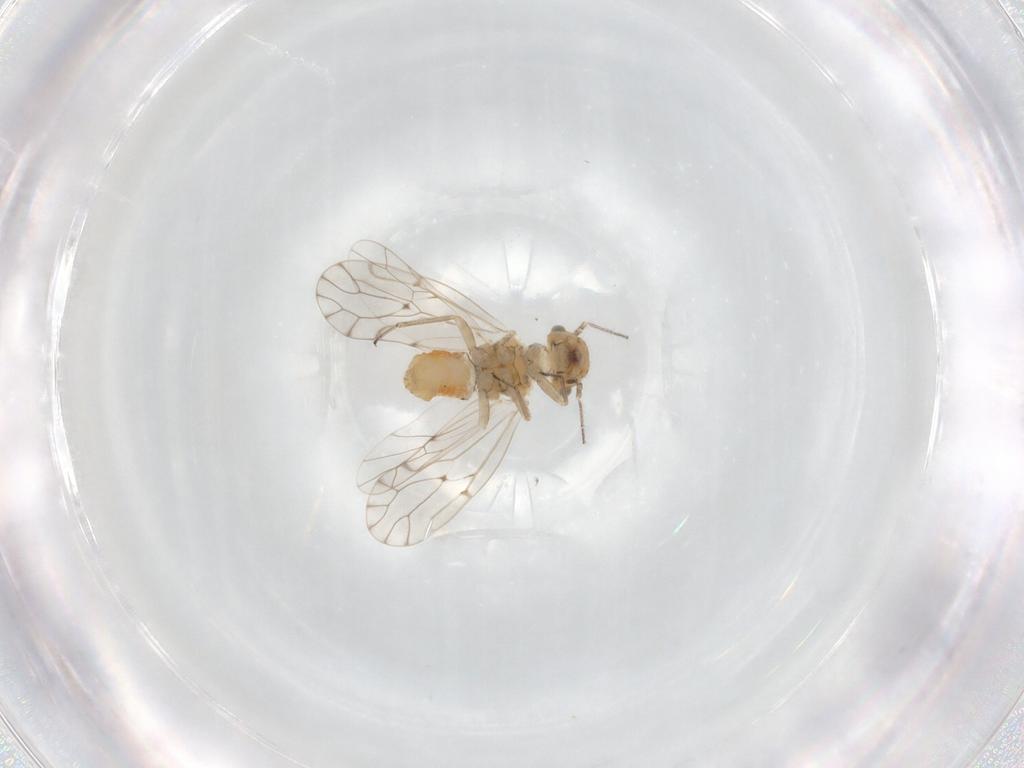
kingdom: Animalia
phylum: Arthropoda
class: Insecta
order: Psocodea
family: Ectopsocidae
